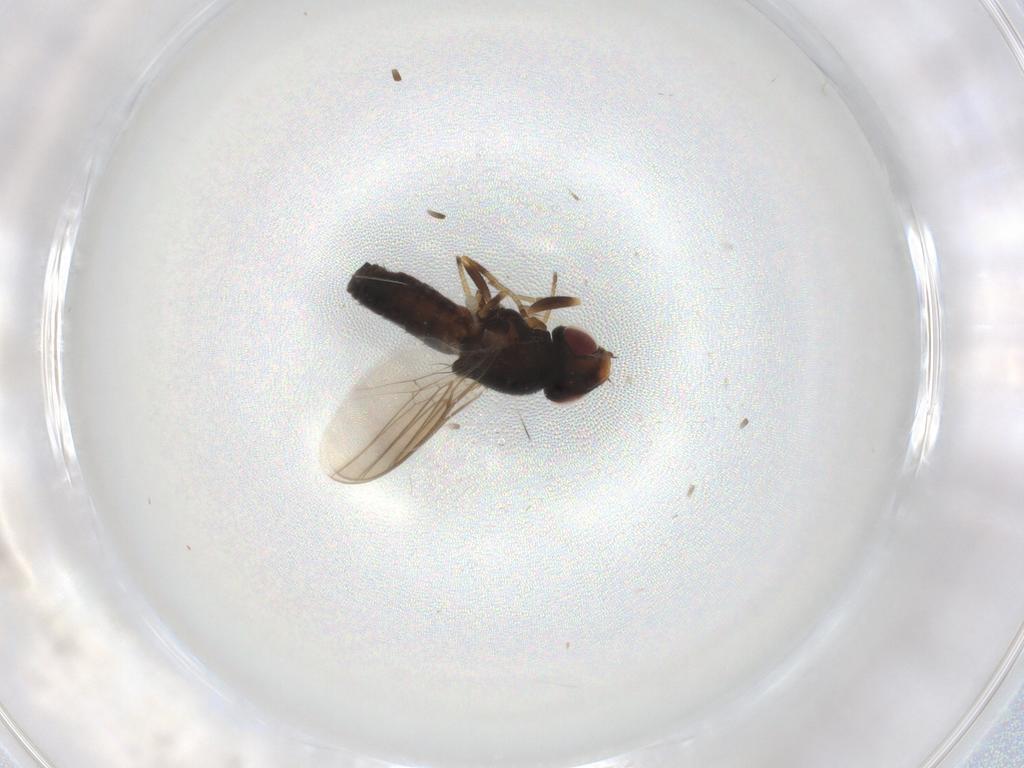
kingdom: Animalia
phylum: Arthropoda
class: Insecta
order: Diptera
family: Chloropidae
